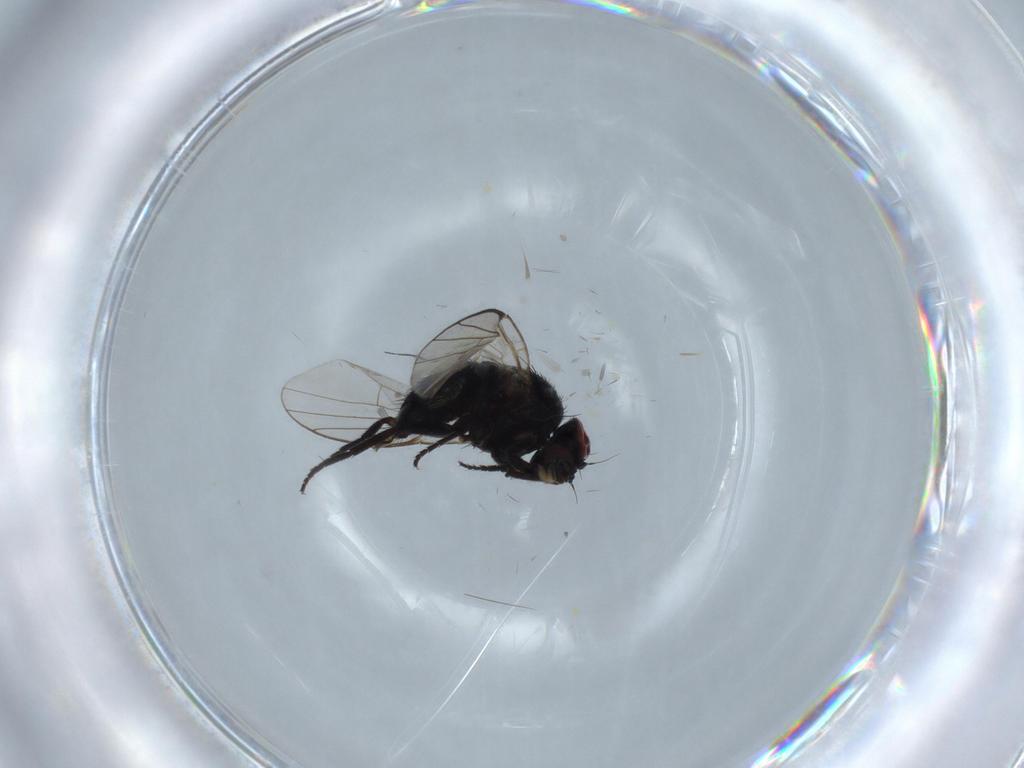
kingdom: Animalia
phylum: Arthropoda
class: Insecta
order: Diptera
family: Agromyzidae
